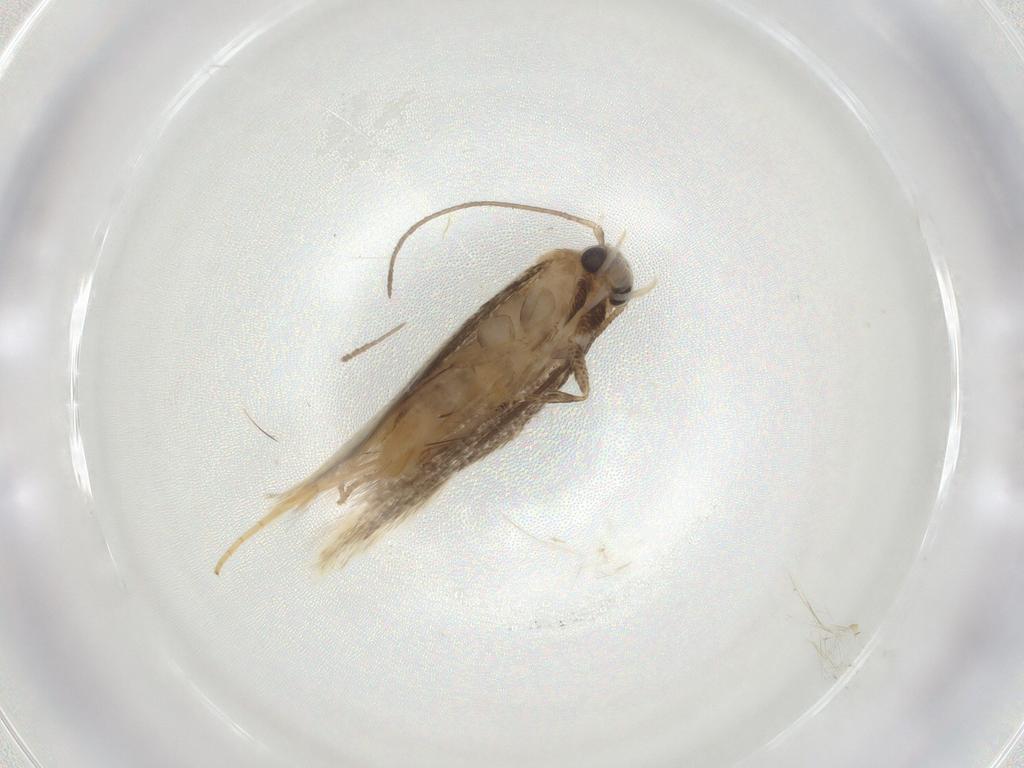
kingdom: Animalia
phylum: Arthropoda
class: Insecta
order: Lepidoptera
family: Elachistidae
